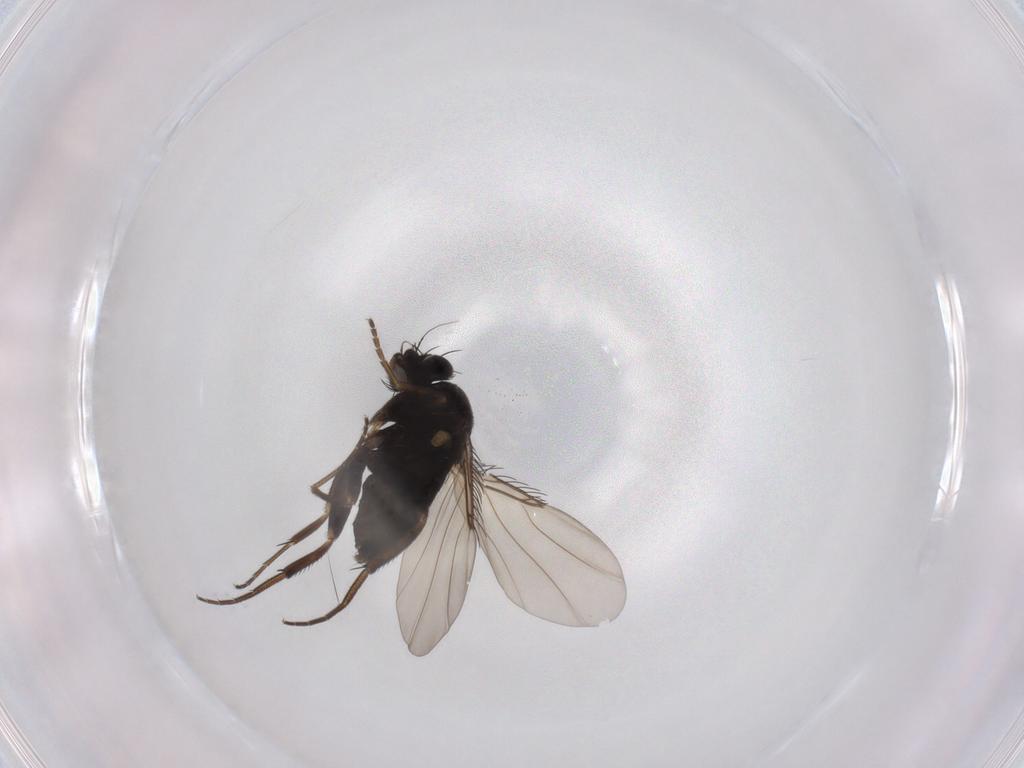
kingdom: Animalia
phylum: Arthropoda
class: Insecta
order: Diptera
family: Phoridae
